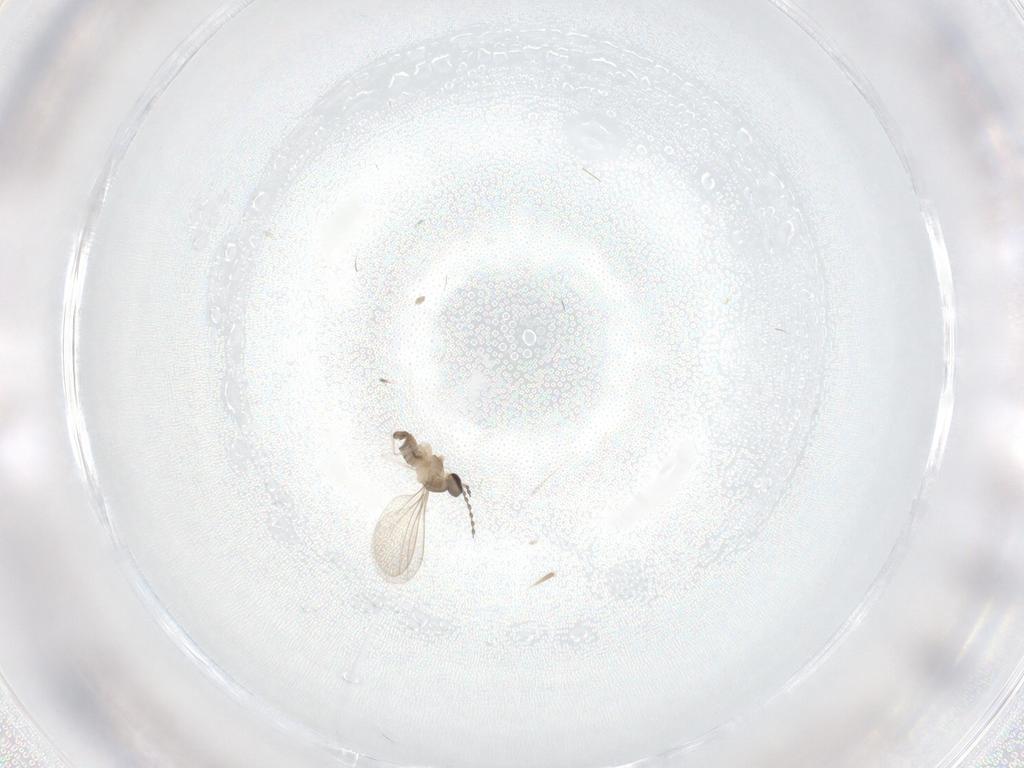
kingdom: Animalia
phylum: Arthropoda
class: Insecta
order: Diptera
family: Cecidomyiidae
